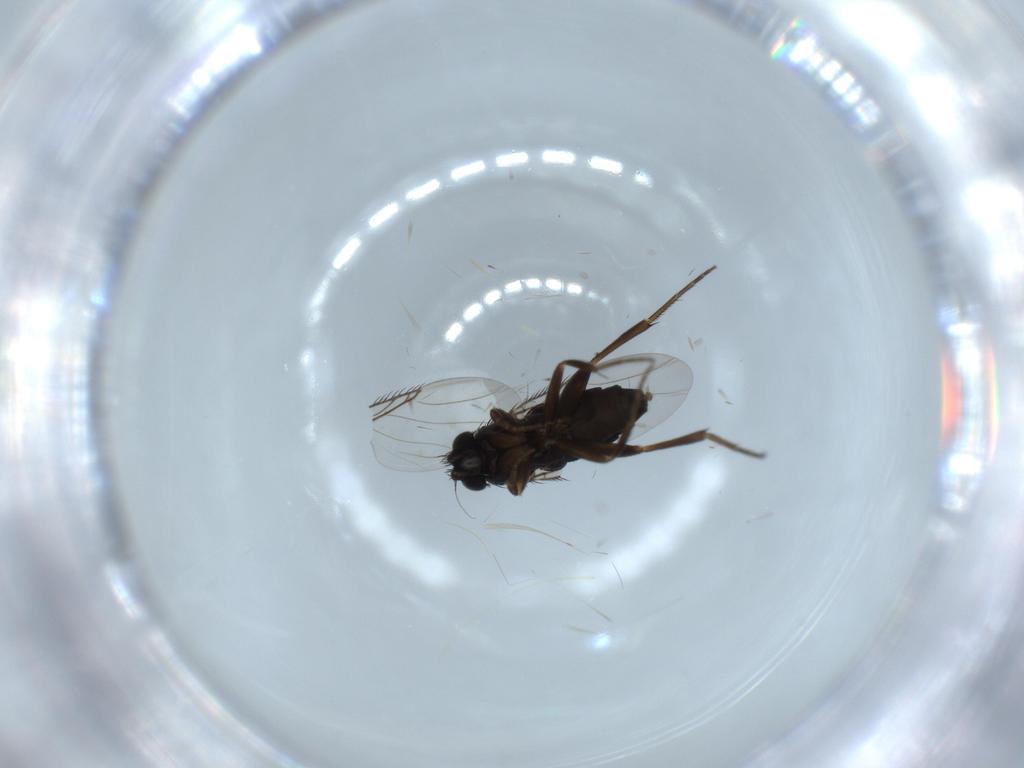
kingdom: Animalia
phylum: Arthropoda
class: Insecta
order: Diptera
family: Phoridae
